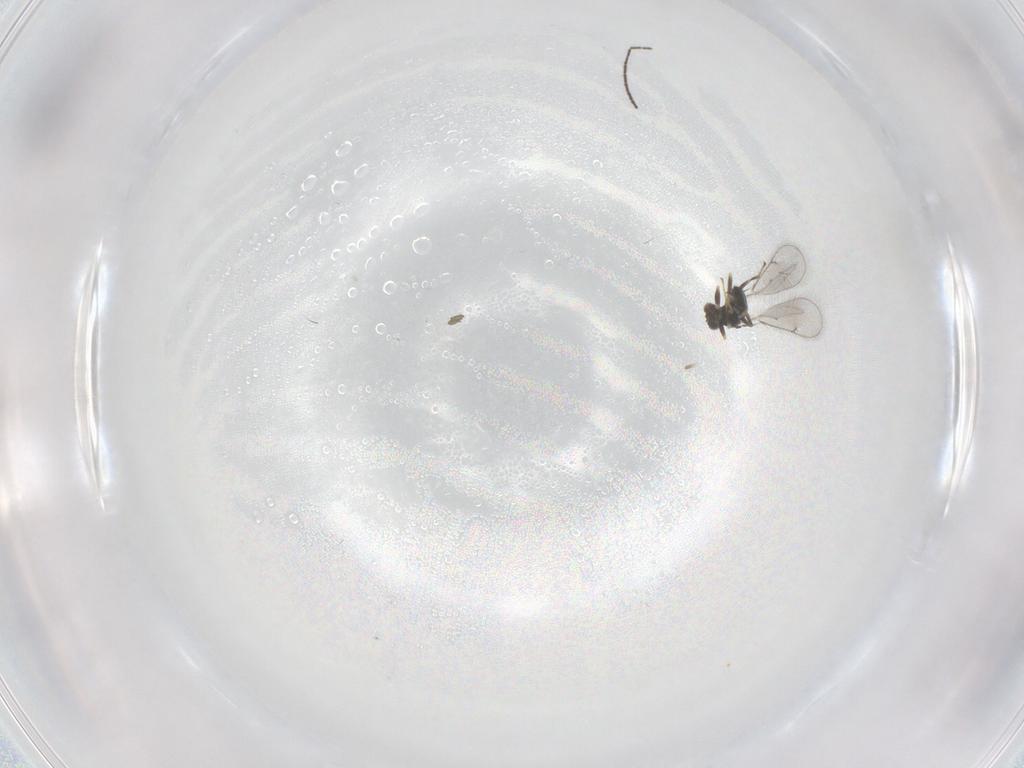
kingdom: Animalia
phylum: Arthropoda
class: Insecta
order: Hymenoptera
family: Eulophidae
